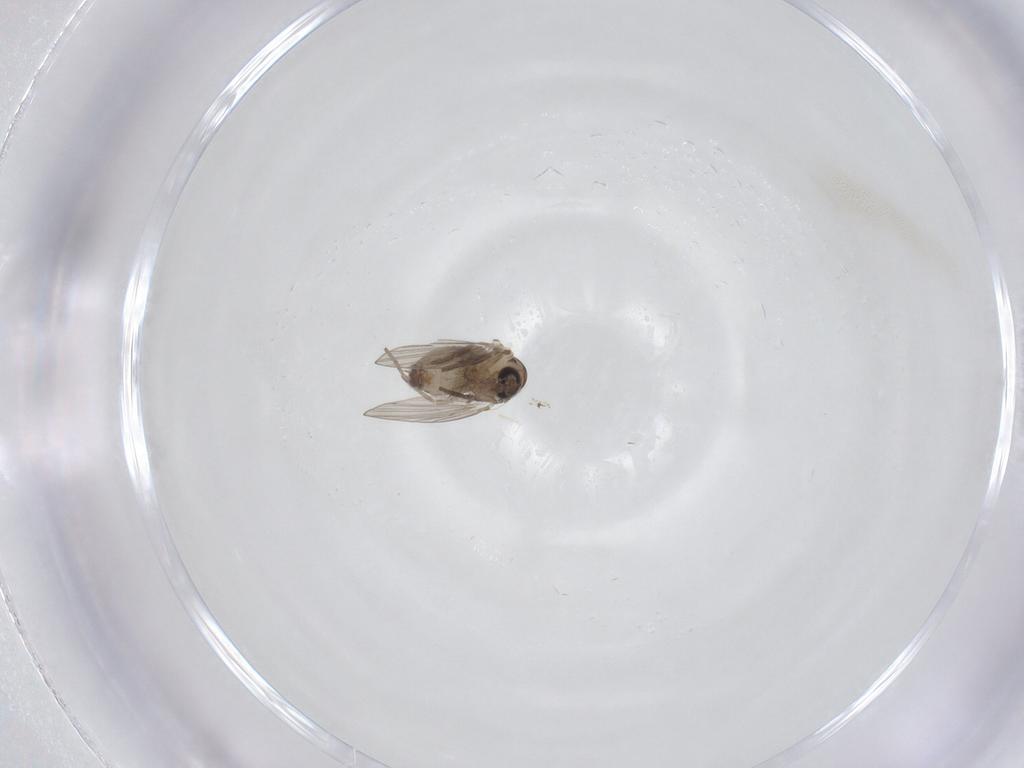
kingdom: Animalia
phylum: Arthropoda
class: Insecta
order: Diptera
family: Psychodidae
